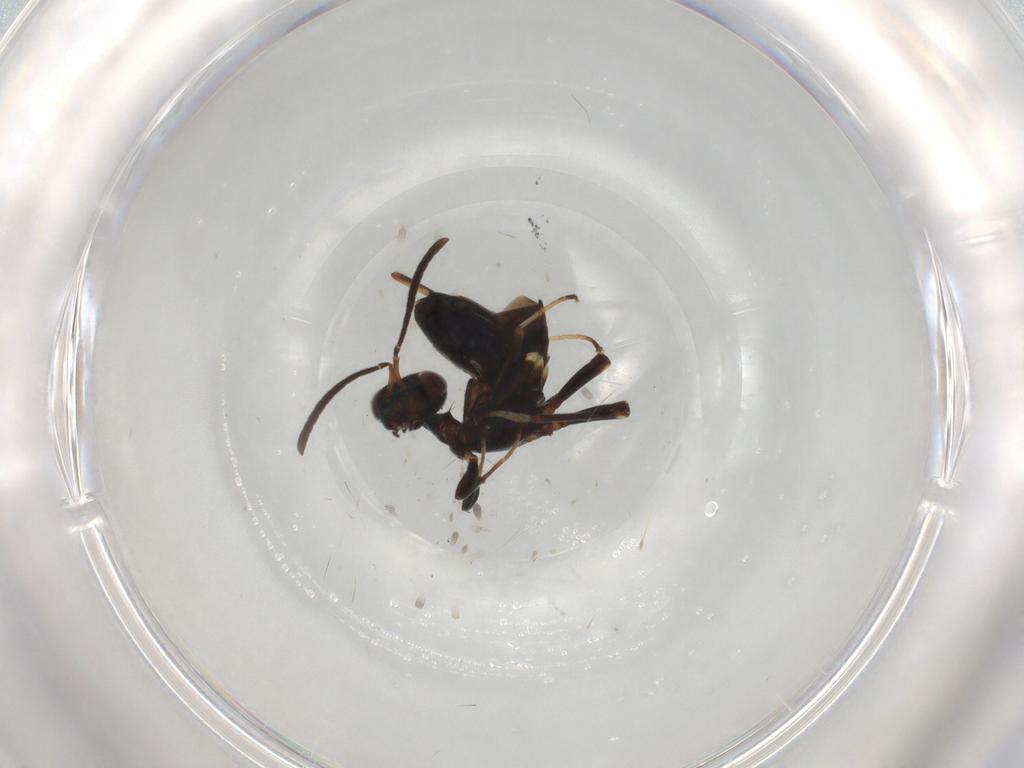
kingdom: Animalia
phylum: Arthropoda
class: Insecta
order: Hymenoptera
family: Eupelmidae
